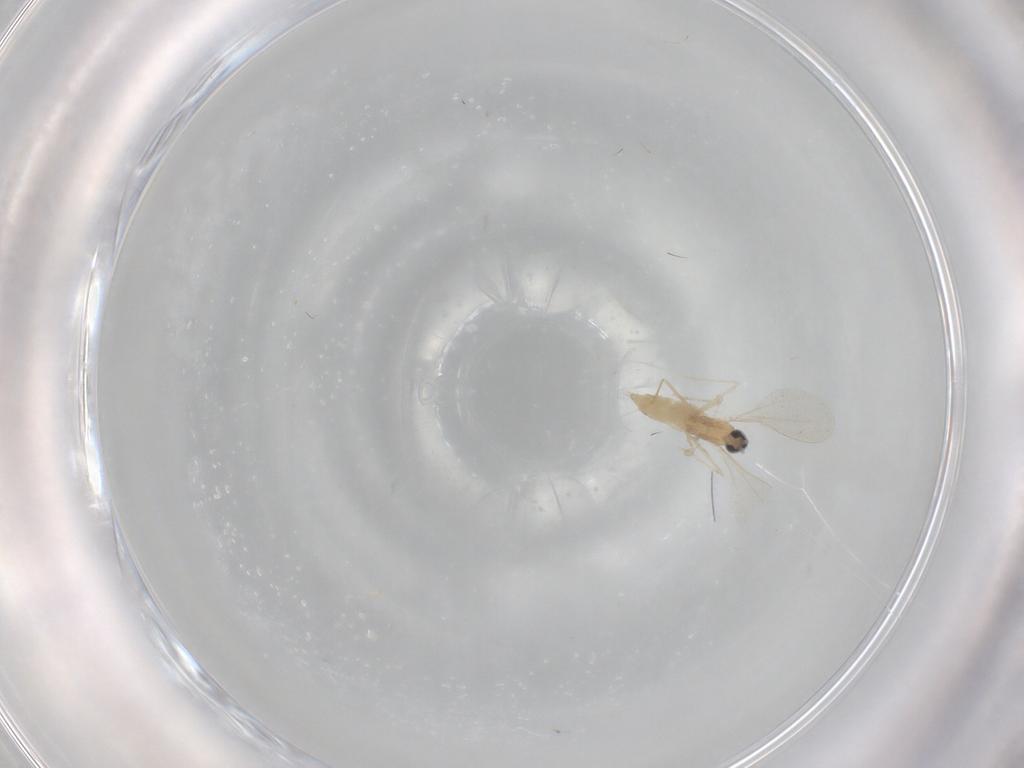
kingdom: Animalia
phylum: Arthropoda
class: Insecta
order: Diptera
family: Cecidomyiidae
